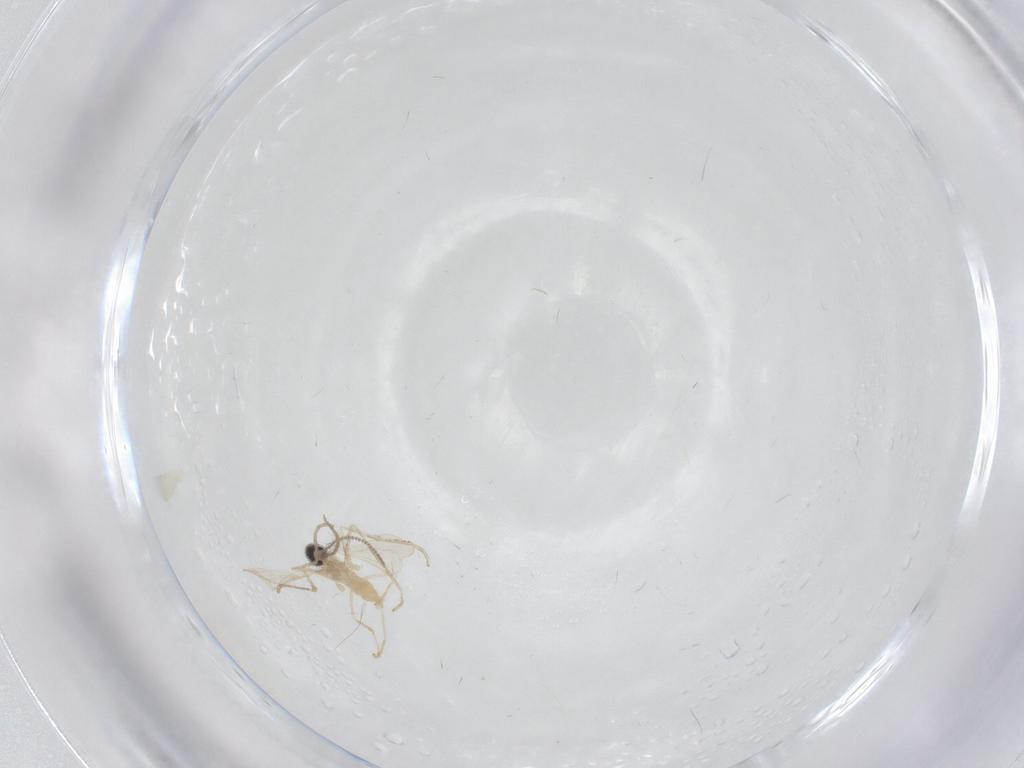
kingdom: Animalia
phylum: Arthropoda
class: Insecta
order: Diptera
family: Cecidomyiidae
